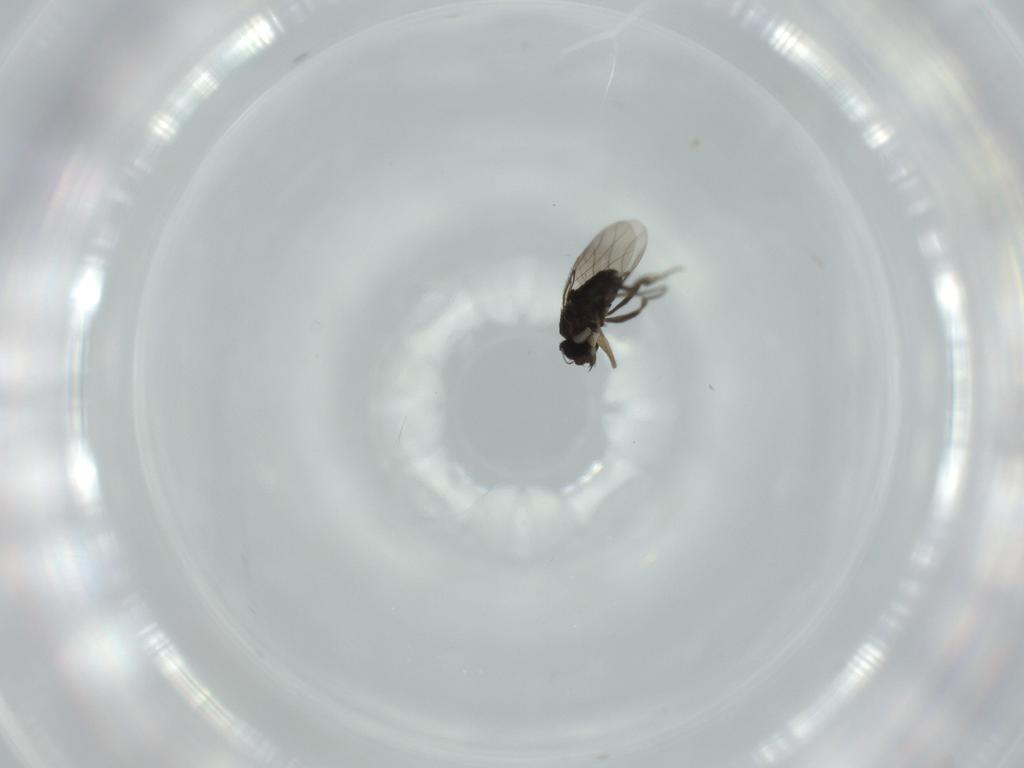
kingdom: Animalia
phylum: Arthropoda
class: Insecta
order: Diptera
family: Phoridae
